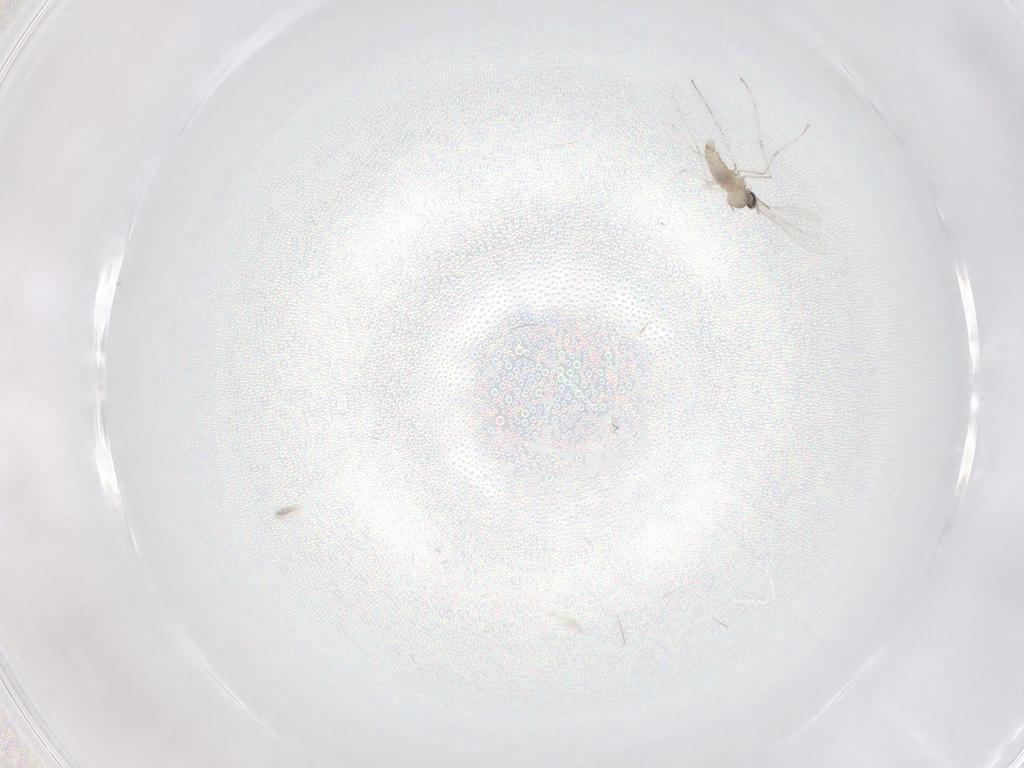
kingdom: Animalia
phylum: Arthropoda
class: Insecta
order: Diptera
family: Cecidomyiidae
